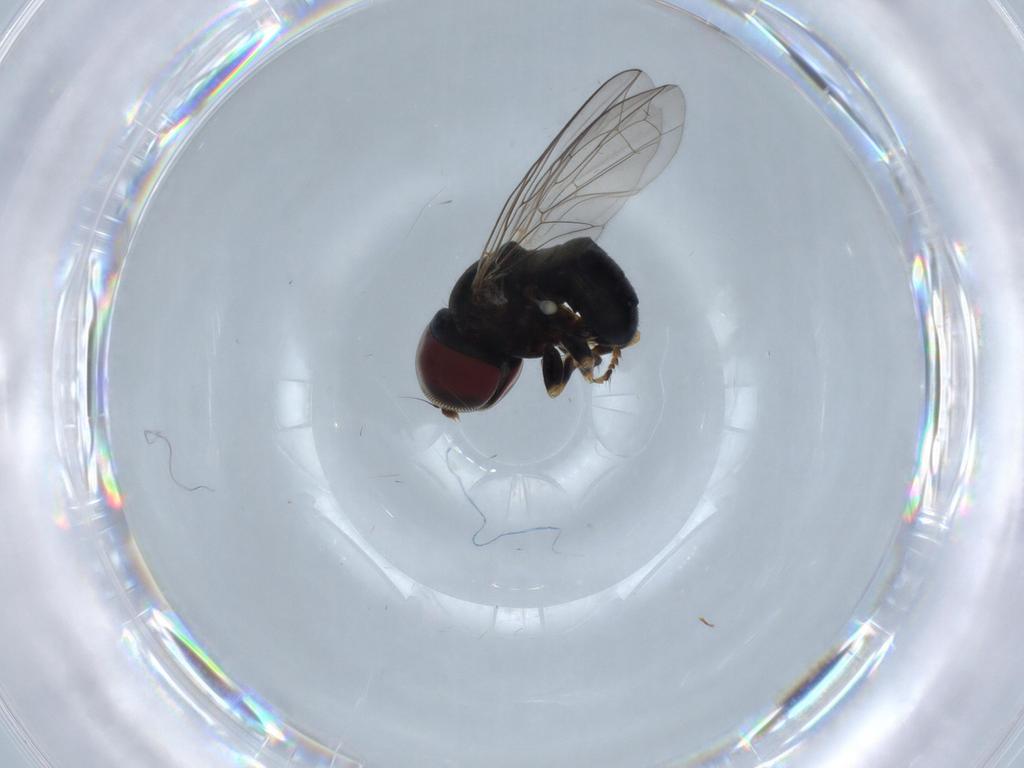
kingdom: Animalia
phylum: Arthropoda
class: Insecta
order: Diptera
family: Pipunculidae
